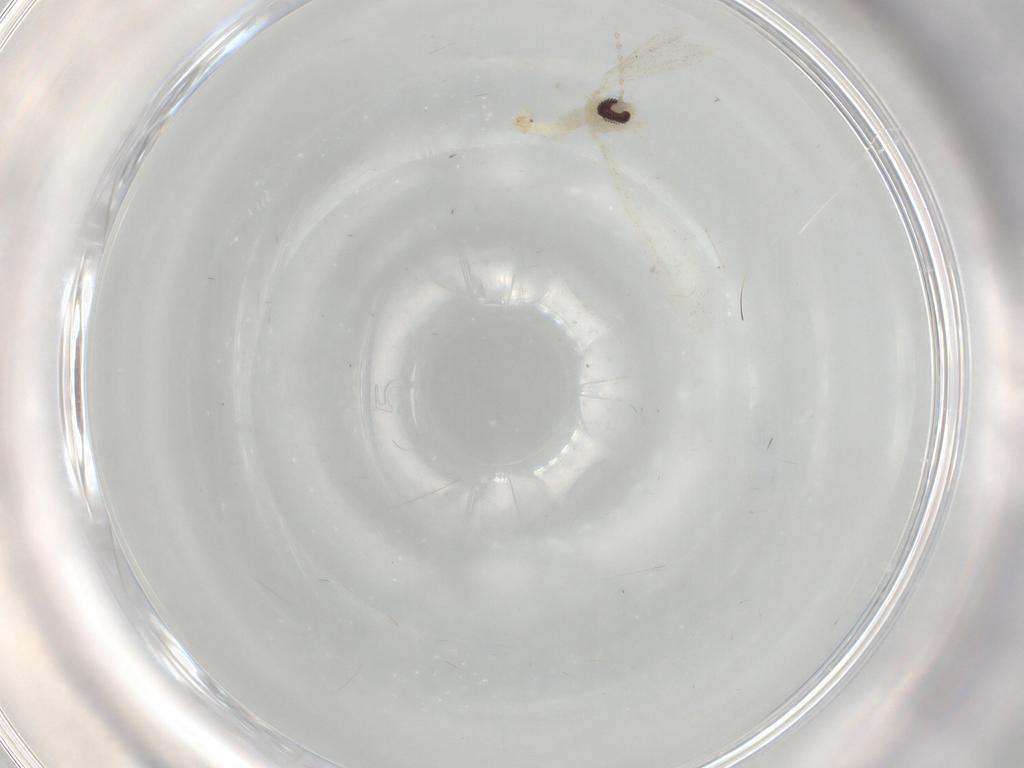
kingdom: Animalia
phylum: Arthropoda
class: Insecta
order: Diptera
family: Cecidomyiidae
